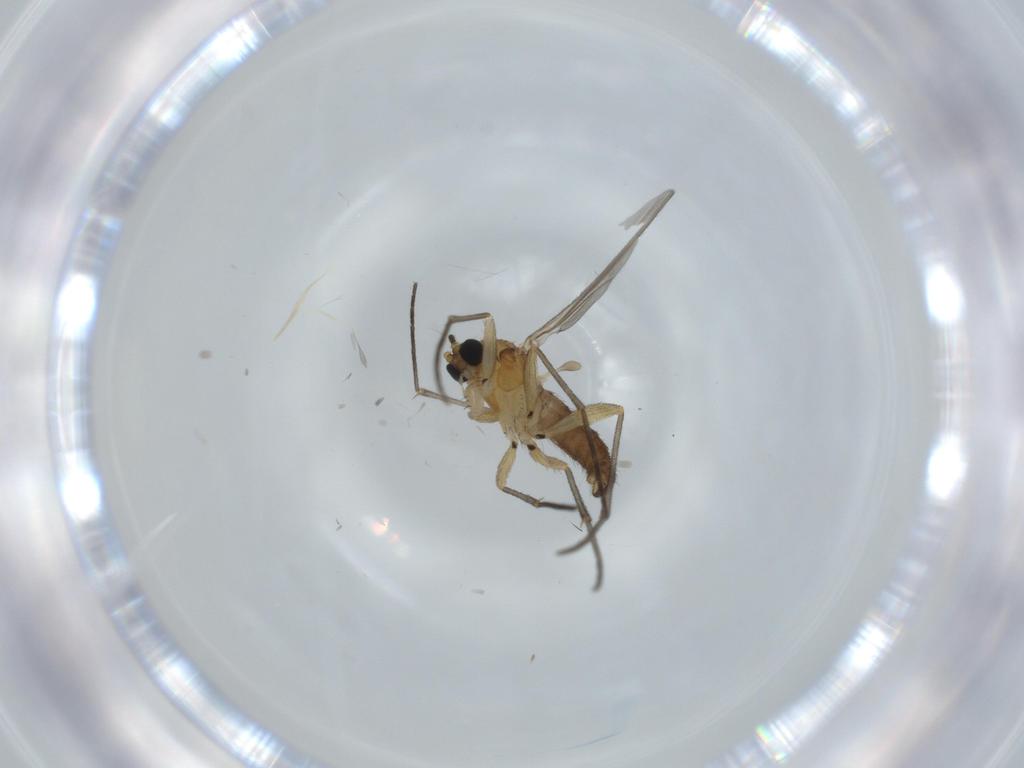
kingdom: Animalia
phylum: Arthropoda
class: Insecta
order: Diptera
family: Sciaridae
